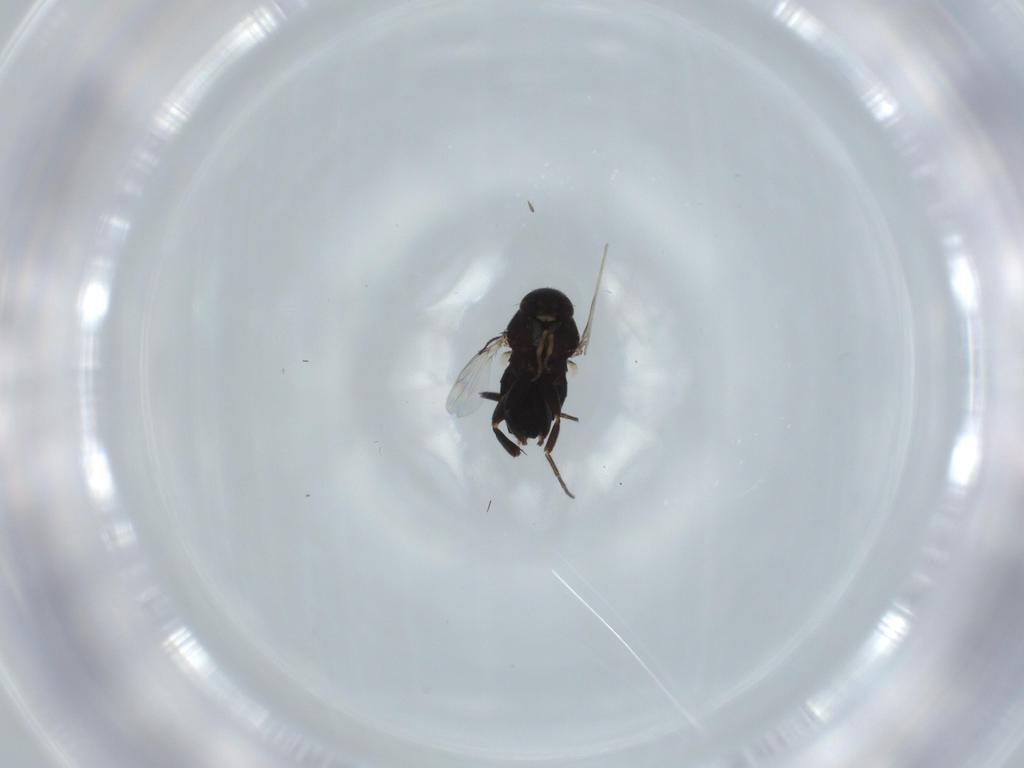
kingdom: Animalia
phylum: Arthropoda
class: Insecta
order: Diptera
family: Phoridae
